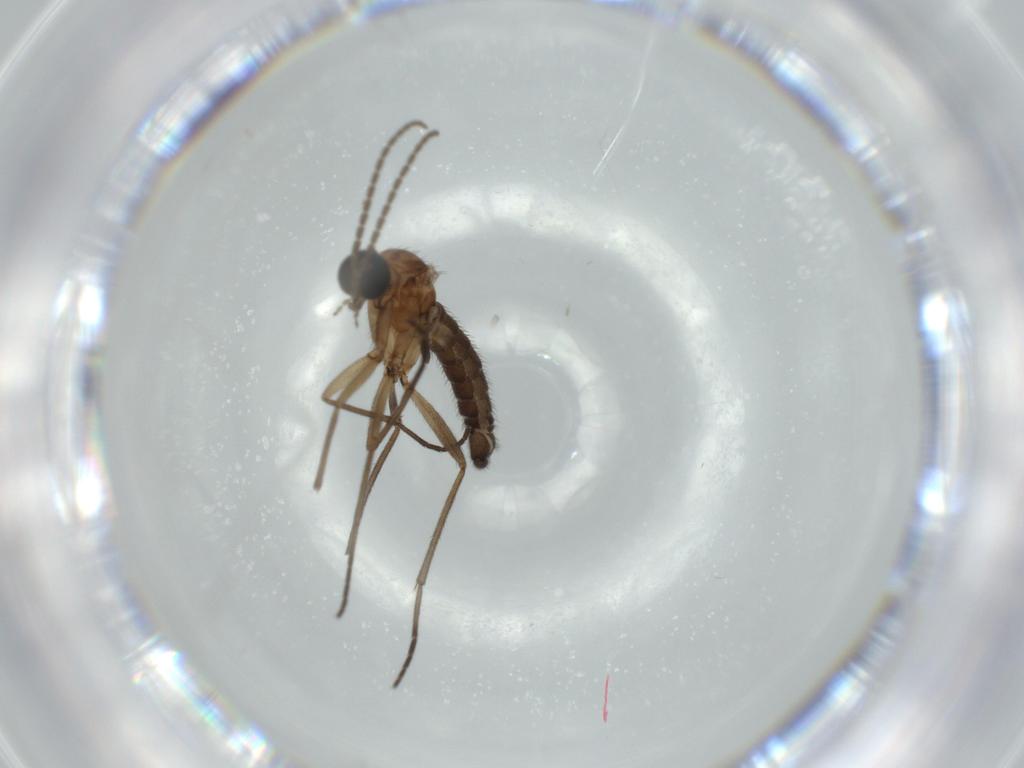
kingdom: Animalia
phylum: Arthropoda
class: Insecta
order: Diptera
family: Sciaridae
